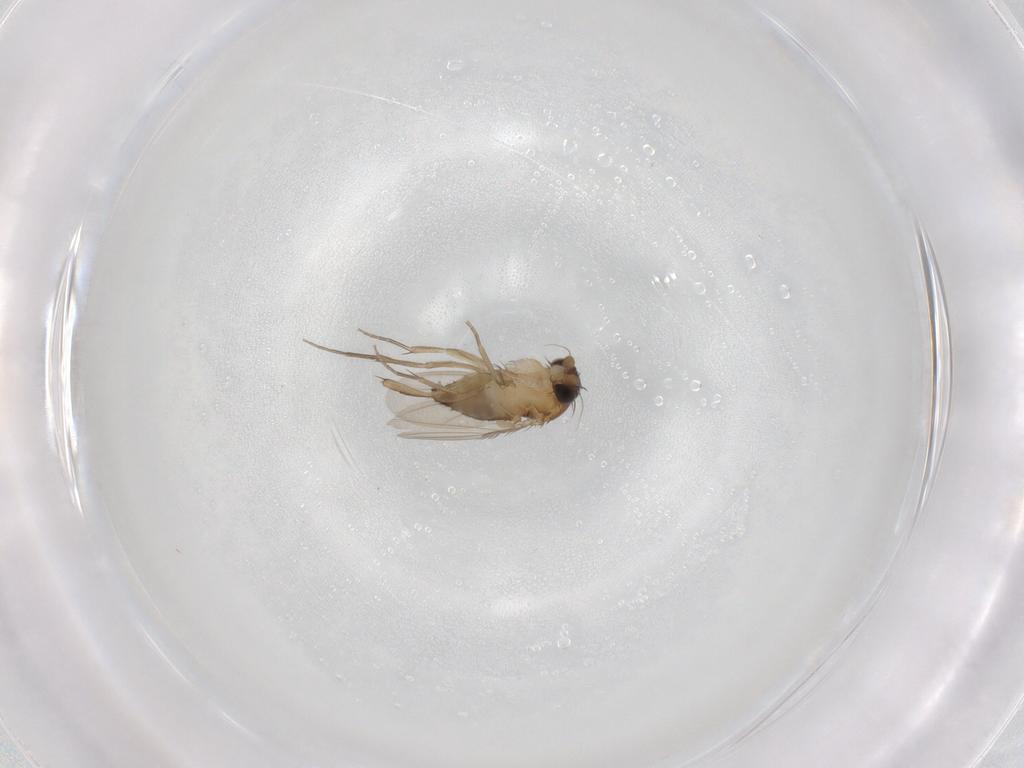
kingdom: Animalia
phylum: Arthropoda
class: Insecta
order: Diptera
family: Phoridae
